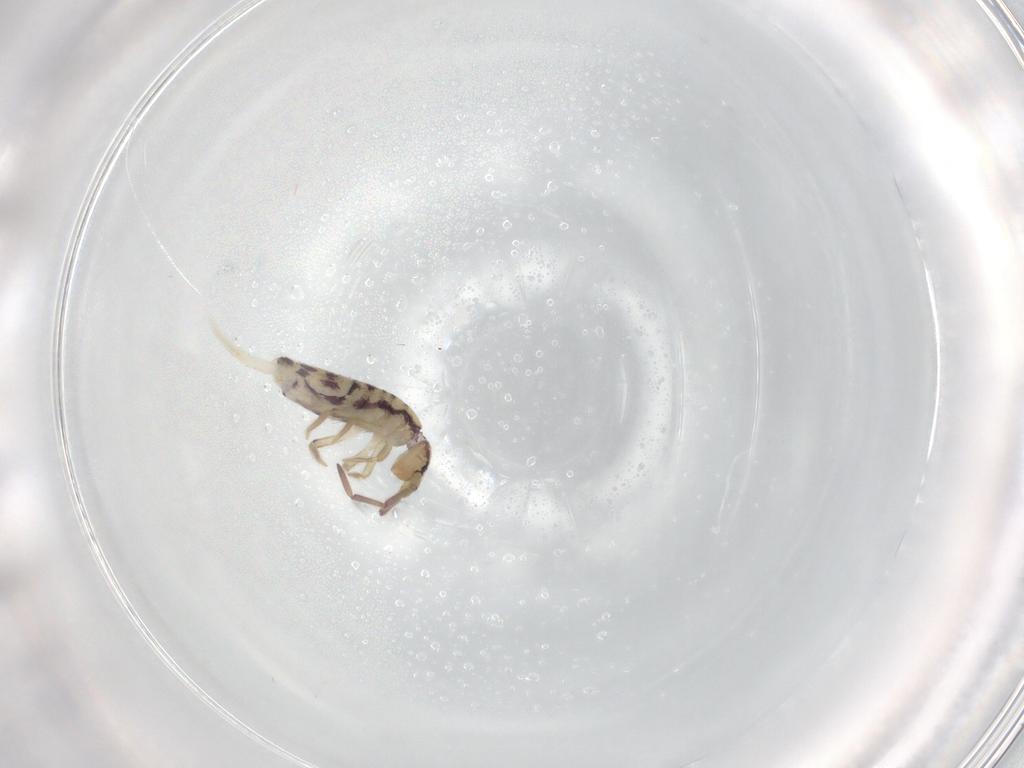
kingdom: Animalia
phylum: Arthropoda
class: Collembola
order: Entomobryomorpha
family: Entomobryidae
